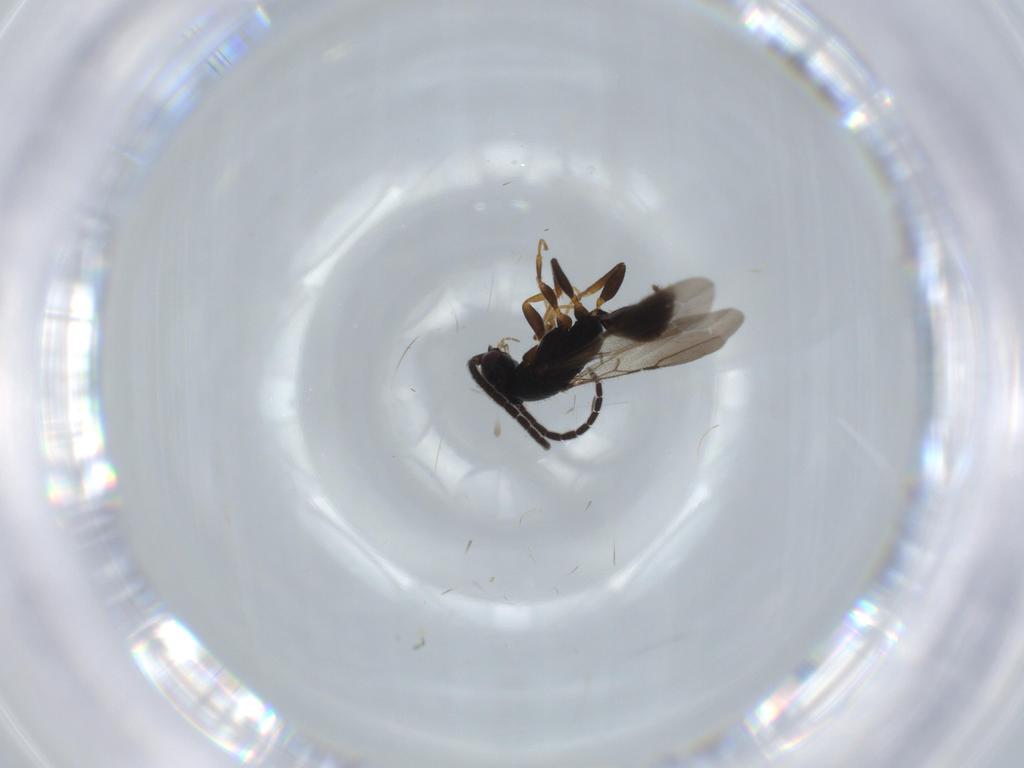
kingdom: Animalia
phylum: Arthropoda
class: Insecta
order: Hymenoptera
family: Bethylidae
